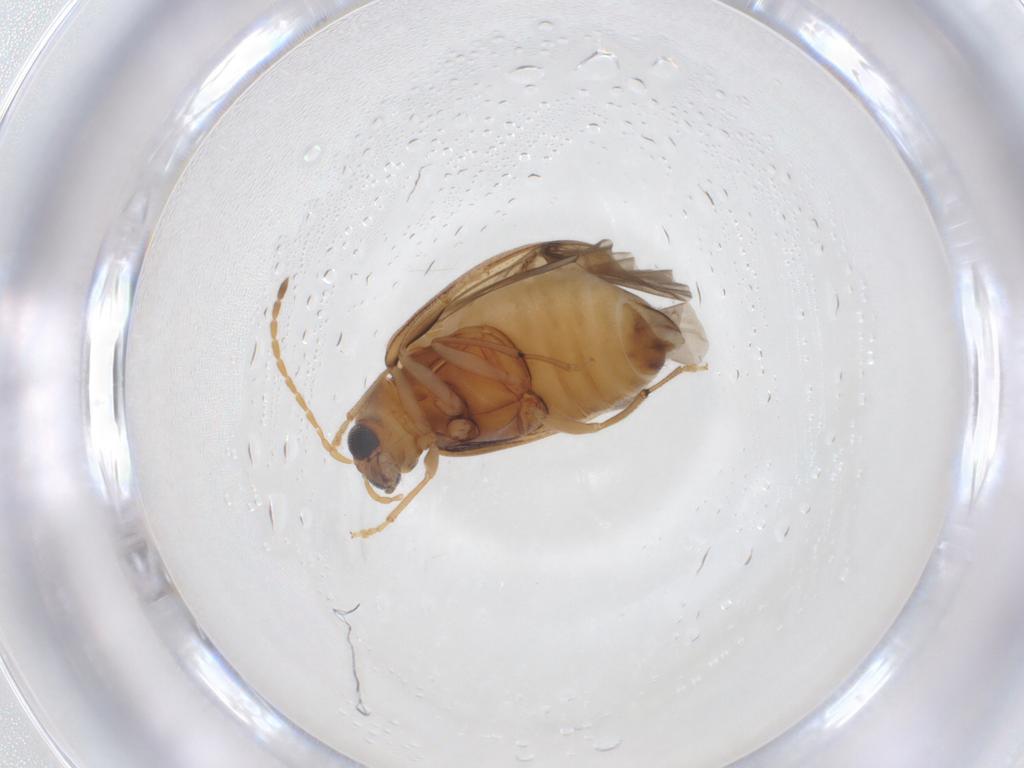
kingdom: Animalia
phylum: Arthropoda
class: Insecta
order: Coleoptera
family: Chrysomelidae
